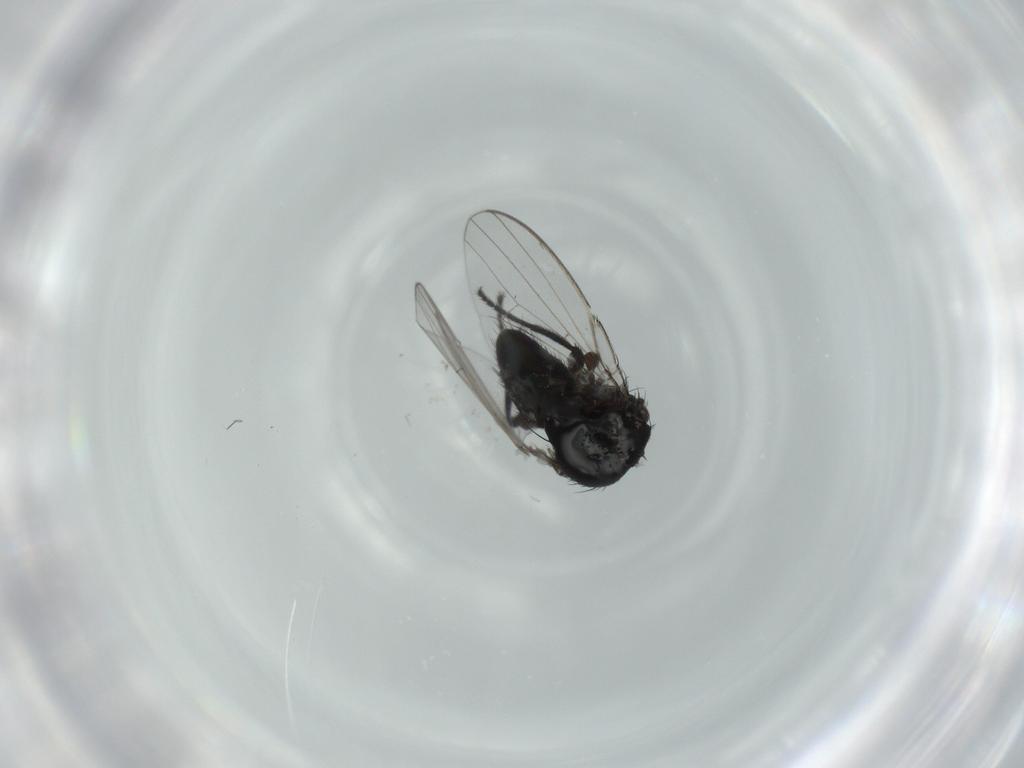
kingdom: Animalia
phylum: Arthropoda
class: Insecta
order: Diptera
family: Milichiidae
